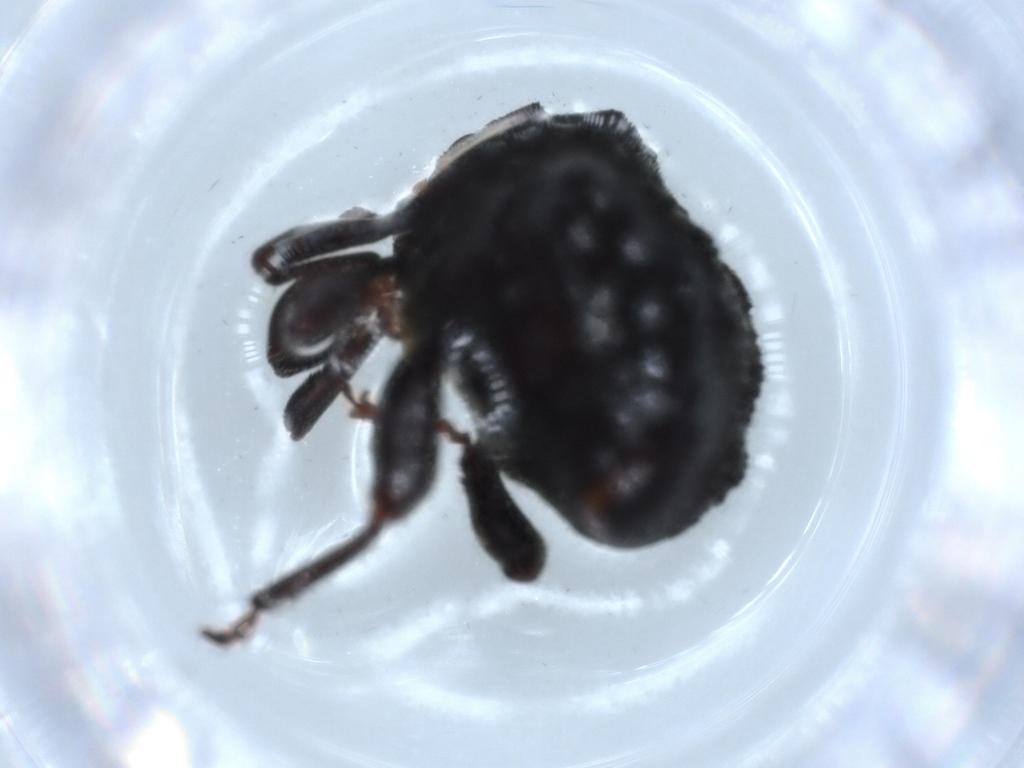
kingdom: Animalia
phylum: Arthropoda
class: Insecta
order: Coleoptera
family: Curculionidae
